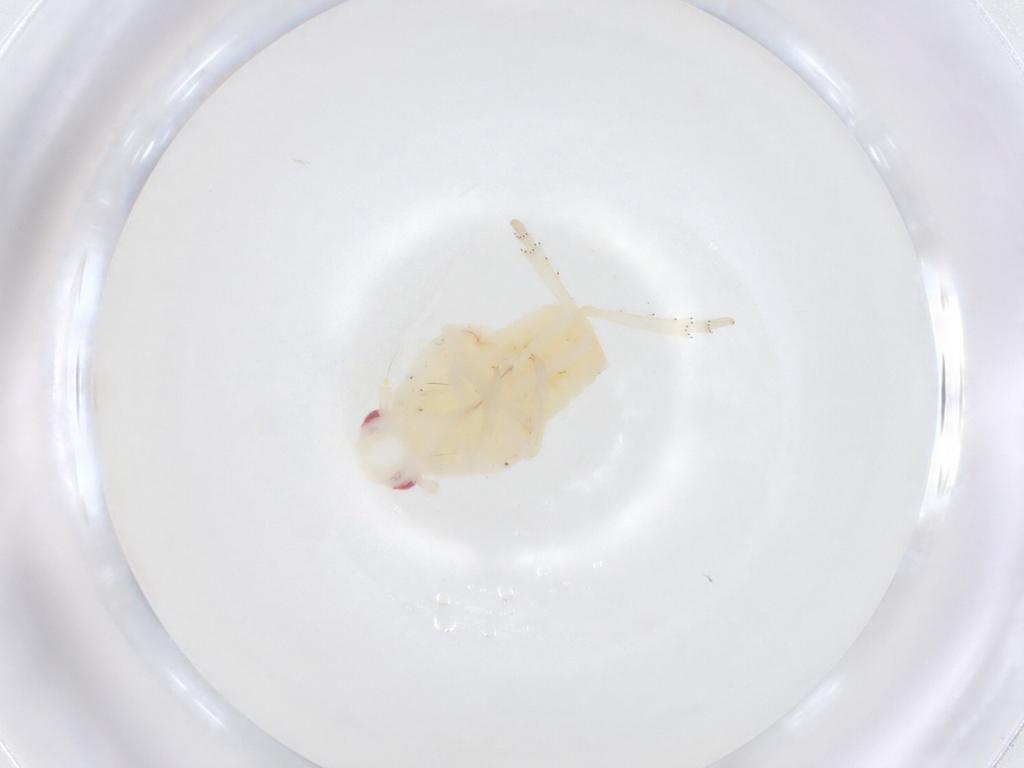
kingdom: Animalia
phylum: Arthropoda
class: Insecta
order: Hemiptera
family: Flatidae
